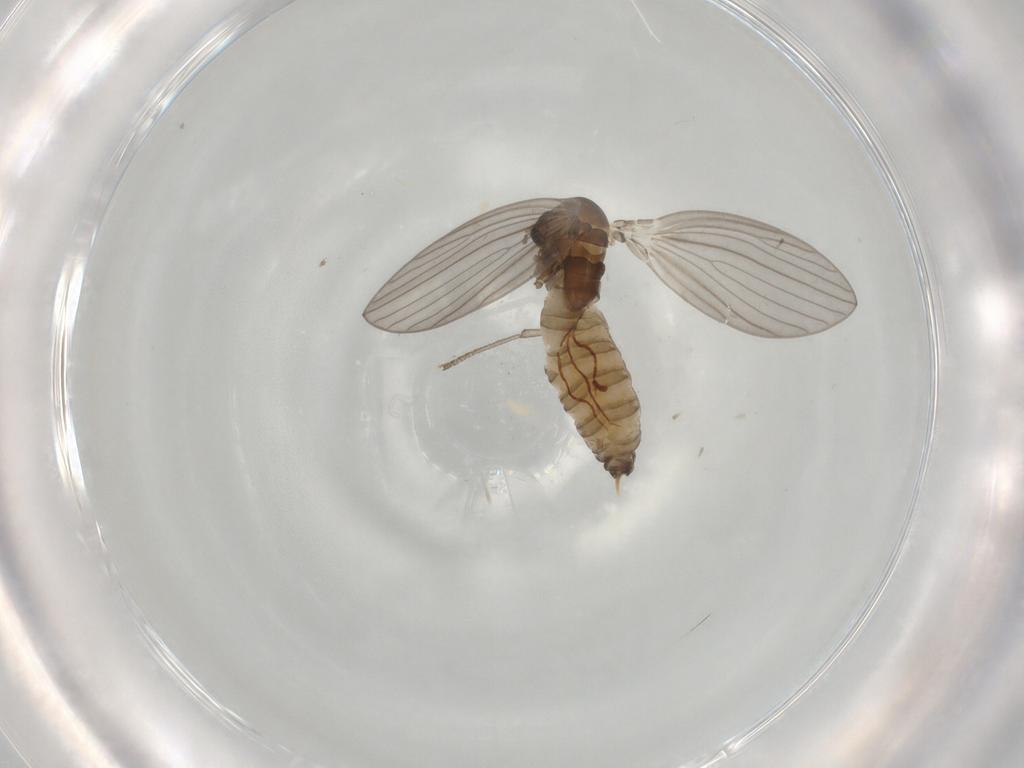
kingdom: Animalia
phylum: Arthropoda
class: Insecta
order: Diptera
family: Psychodidae
